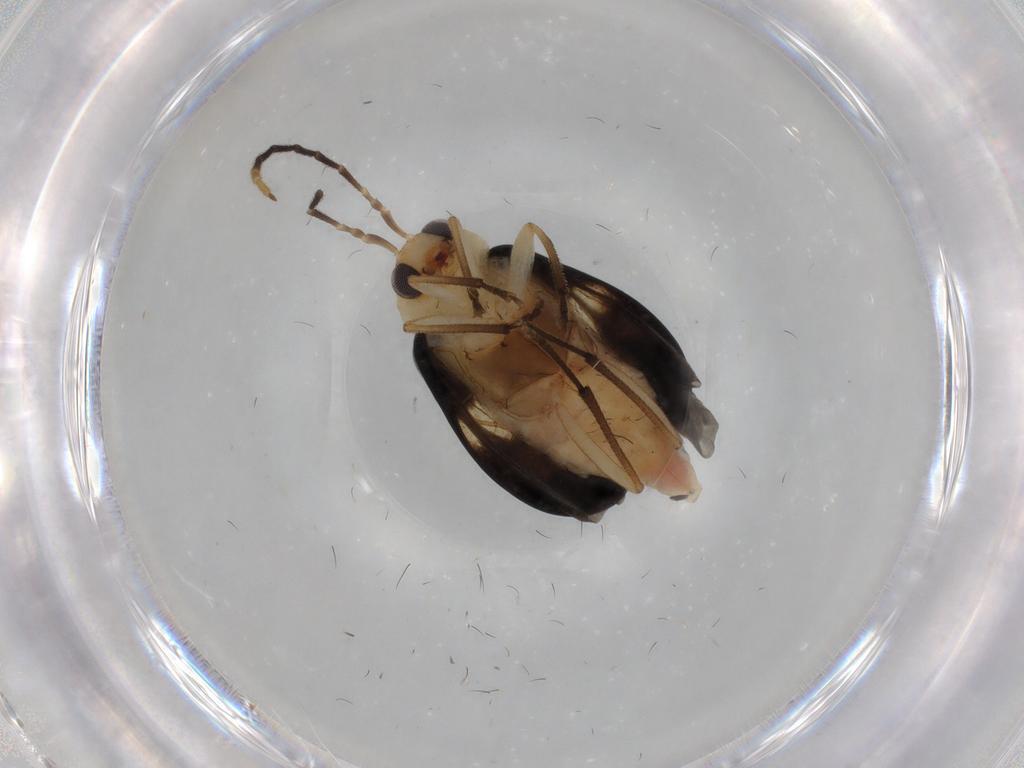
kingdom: Animalia
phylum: Arthropoda
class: Insecta
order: Coleoptera
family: Chrysomelidae
